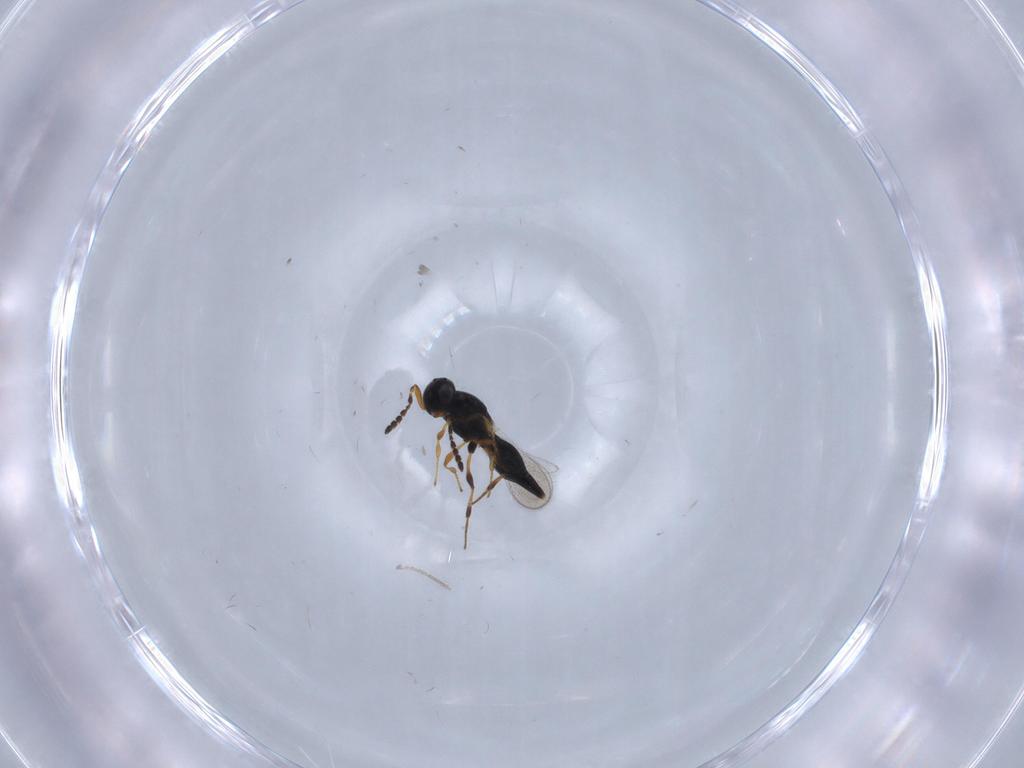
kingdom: Animalia
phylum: Arthropoda
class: Insecta
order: Hymenoptera
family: Platygastridae
